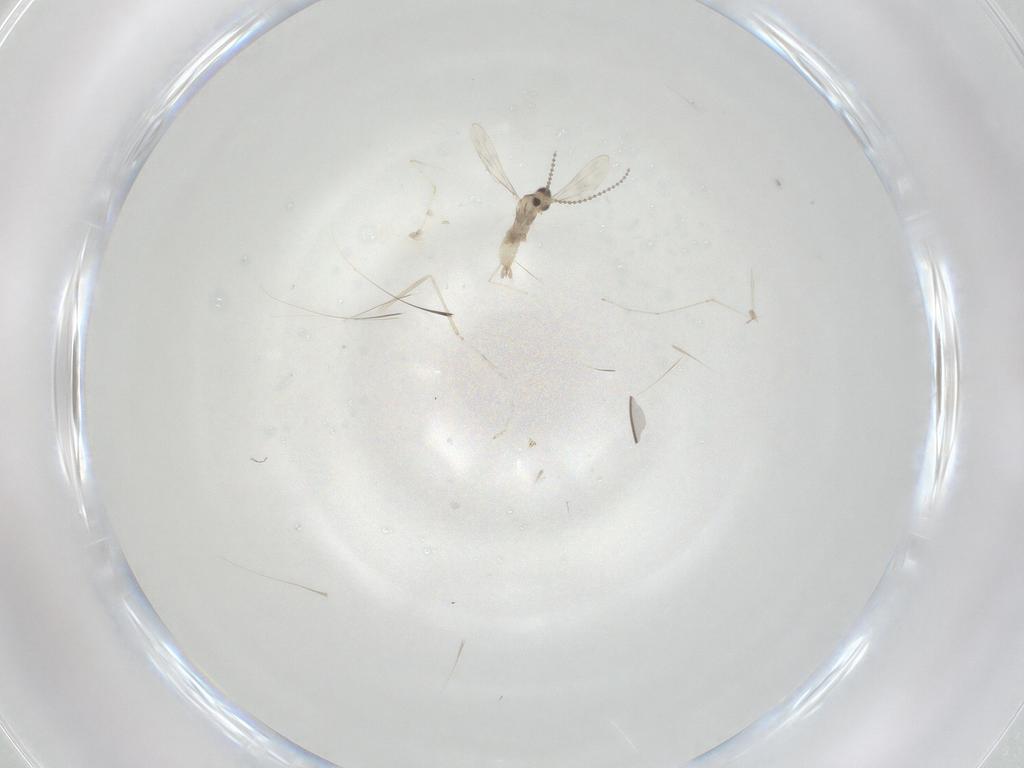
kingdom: Animalia
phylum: Arthropoda
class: Insecta
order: Diptera
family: Cecidomyiidae
